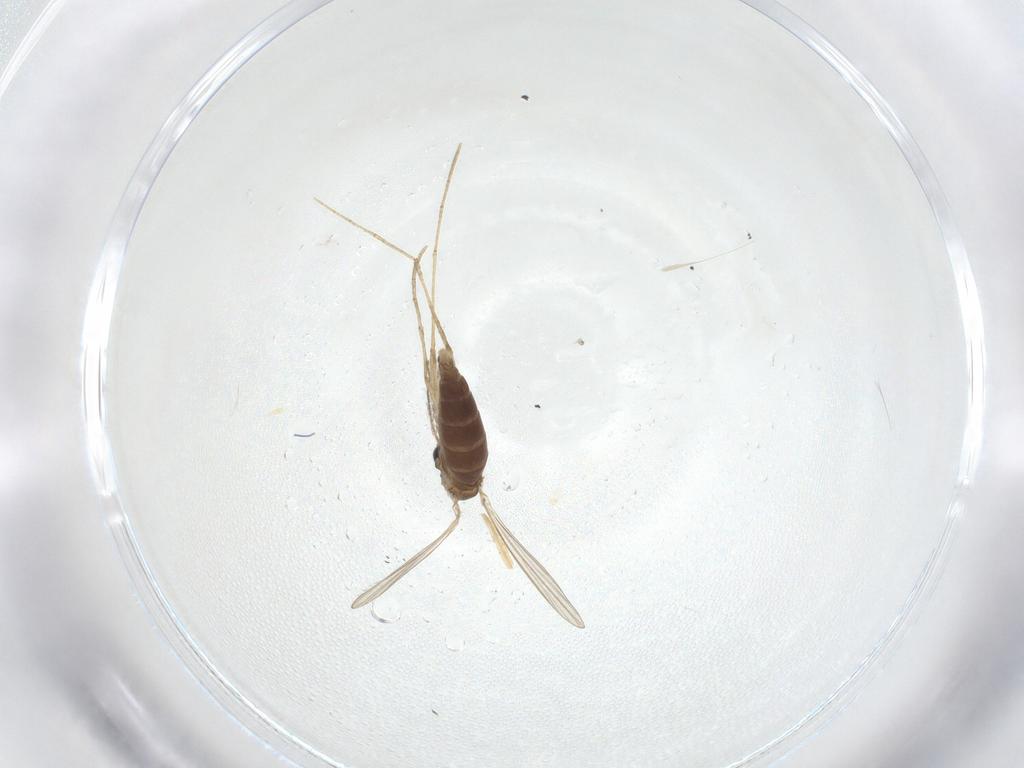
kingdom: Animalia
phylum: Arthropoda
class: Insecta
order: Diptera
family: Psychodidae
